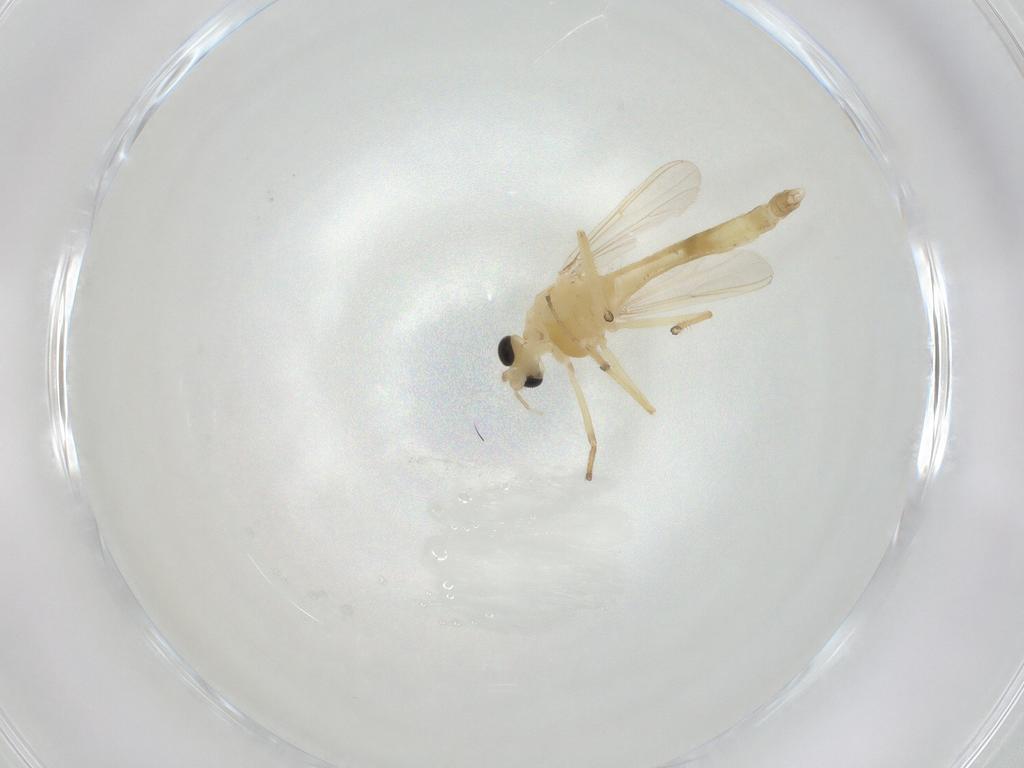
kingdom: Animalia
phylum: Arthropoda
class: Insecta
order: Diptera
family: Chironomidae
